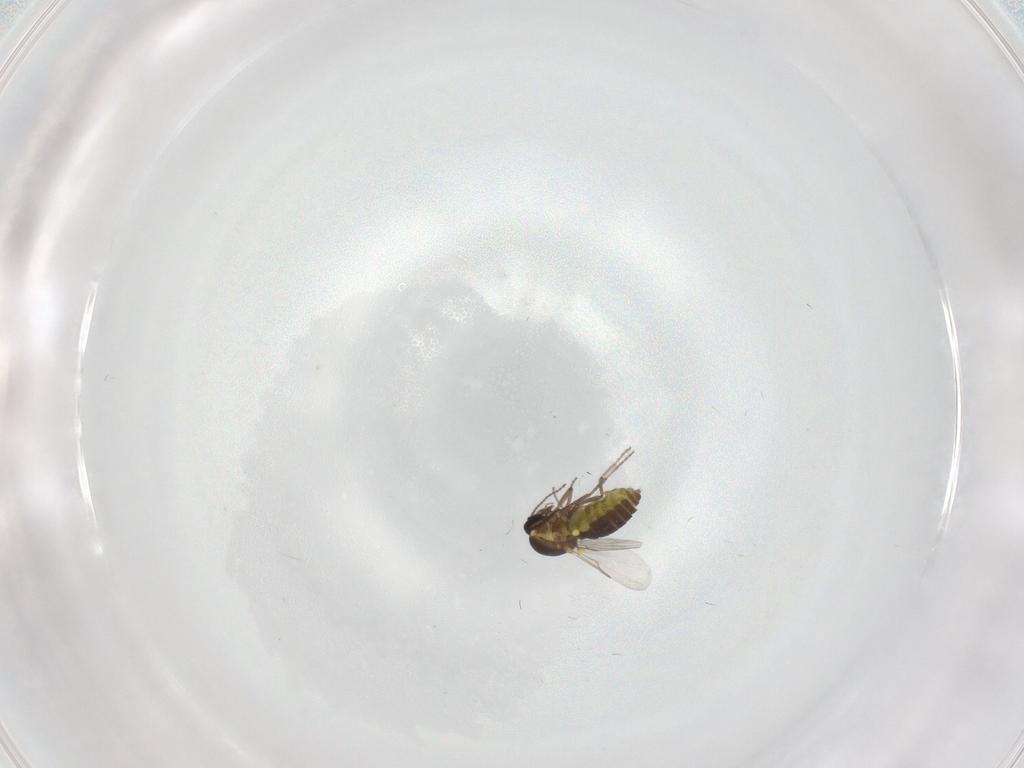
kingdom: Animalia
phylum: Arthropoda
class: Insecta
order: Diptera
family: Ceratopogonidae
